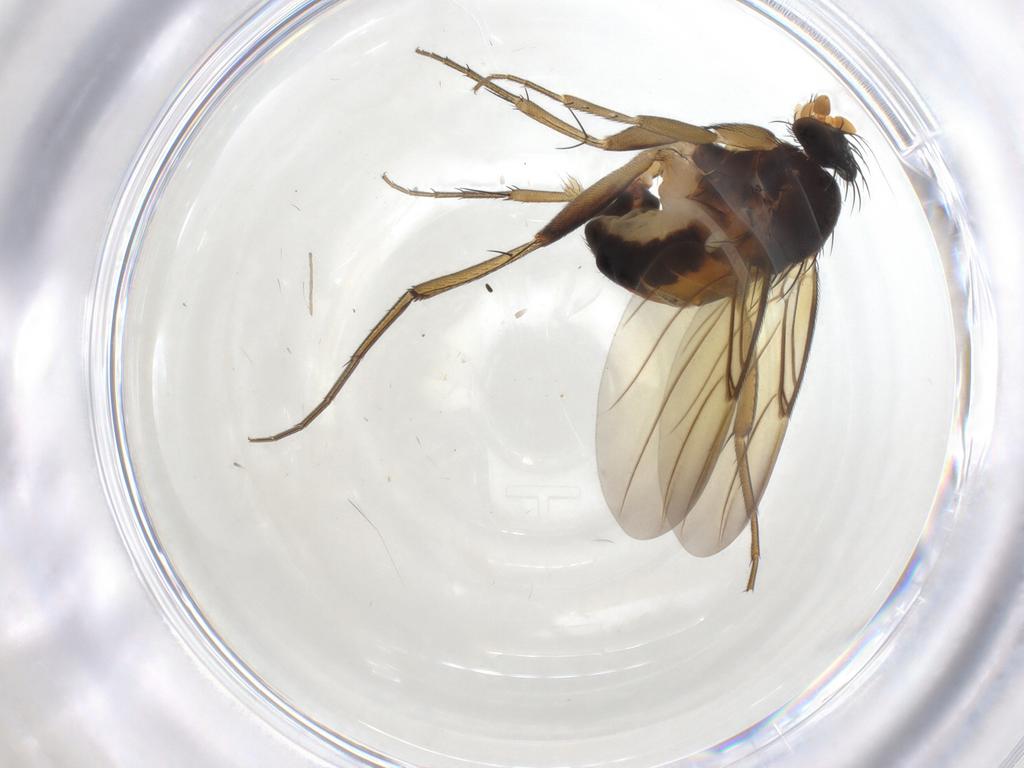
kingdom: Animalia
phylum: Arthropoda
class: Insecta
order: Diptera
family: Phoridae
